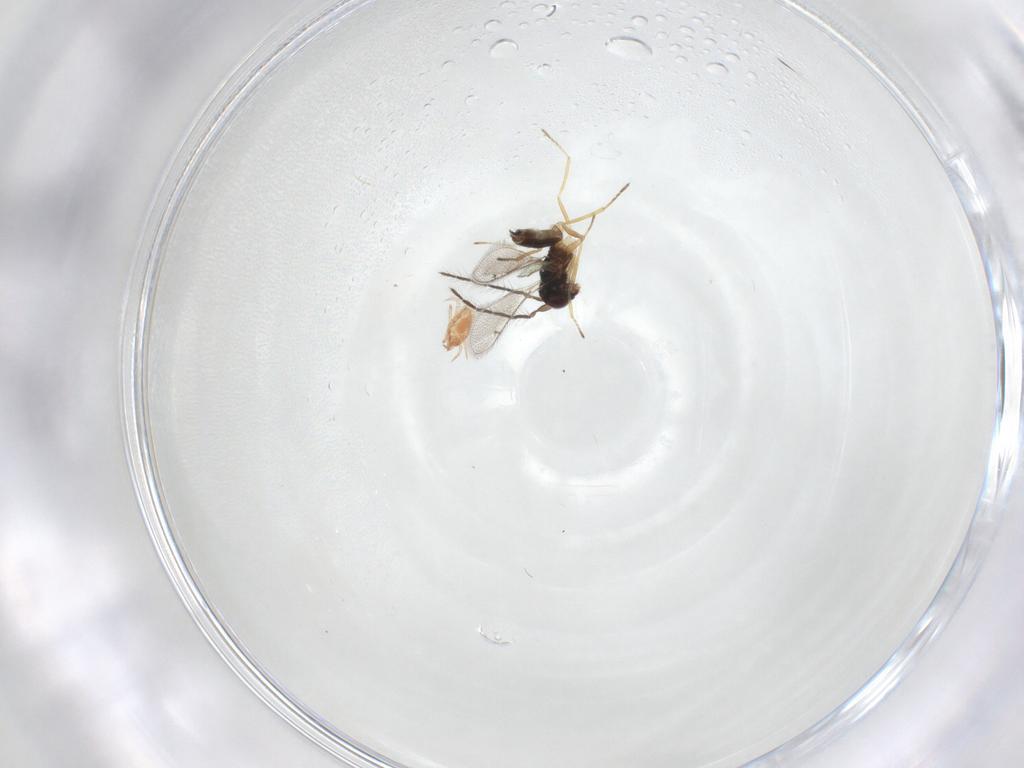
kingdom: Animalia
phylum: Arthropoda
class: Insecta
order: Hymenoptera
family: Eulophidae
